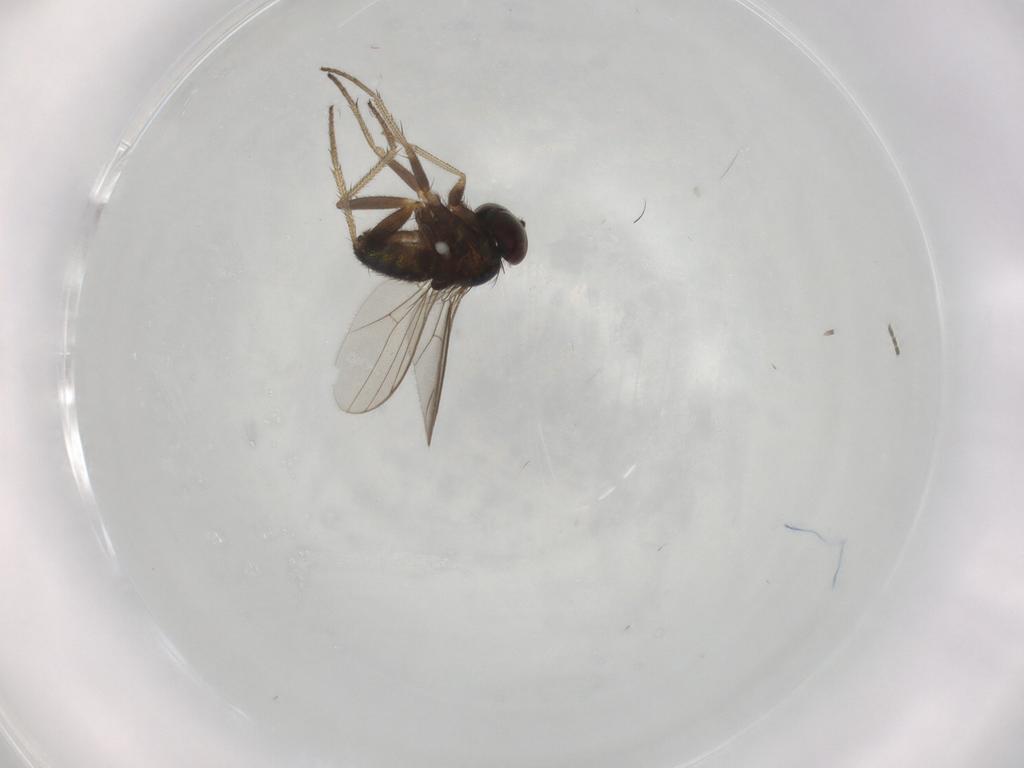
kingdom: Animalia
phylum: Arthropoda
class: Insecta
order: Diptera
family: Sciaridae
